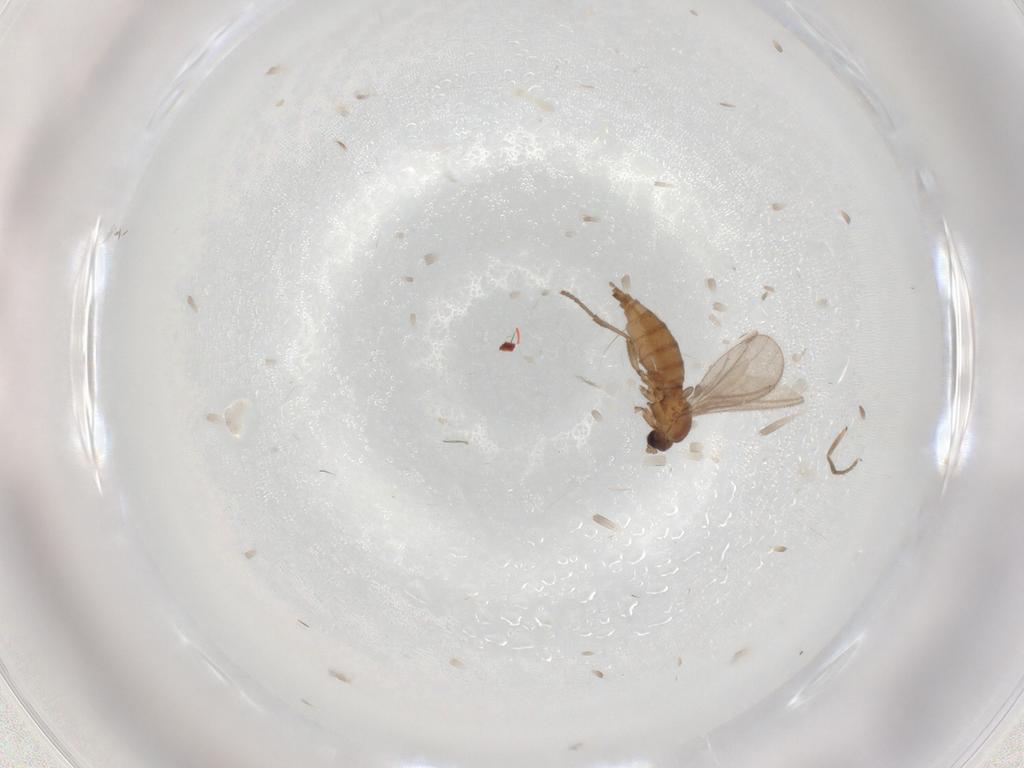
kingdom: Animalia
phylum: Arthropoda
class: Insecta
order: Diptera
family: Sciaridae
